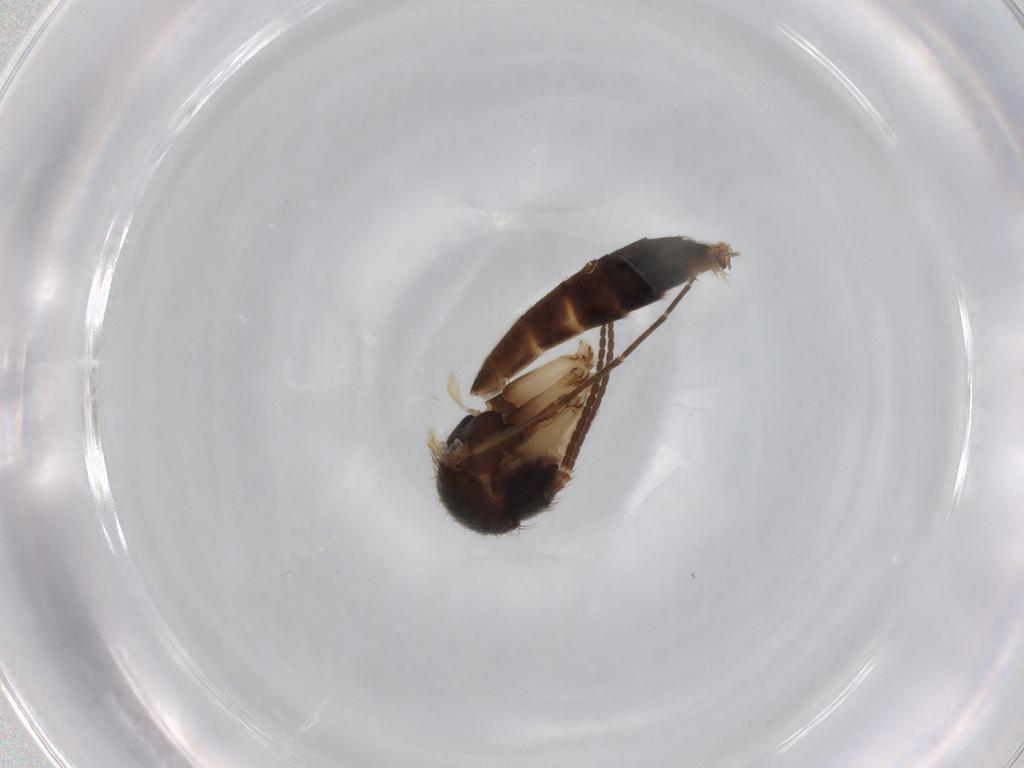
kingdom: Animalia
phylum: Arthropoda
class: Insecta
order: Diptera
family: Polleniidae
